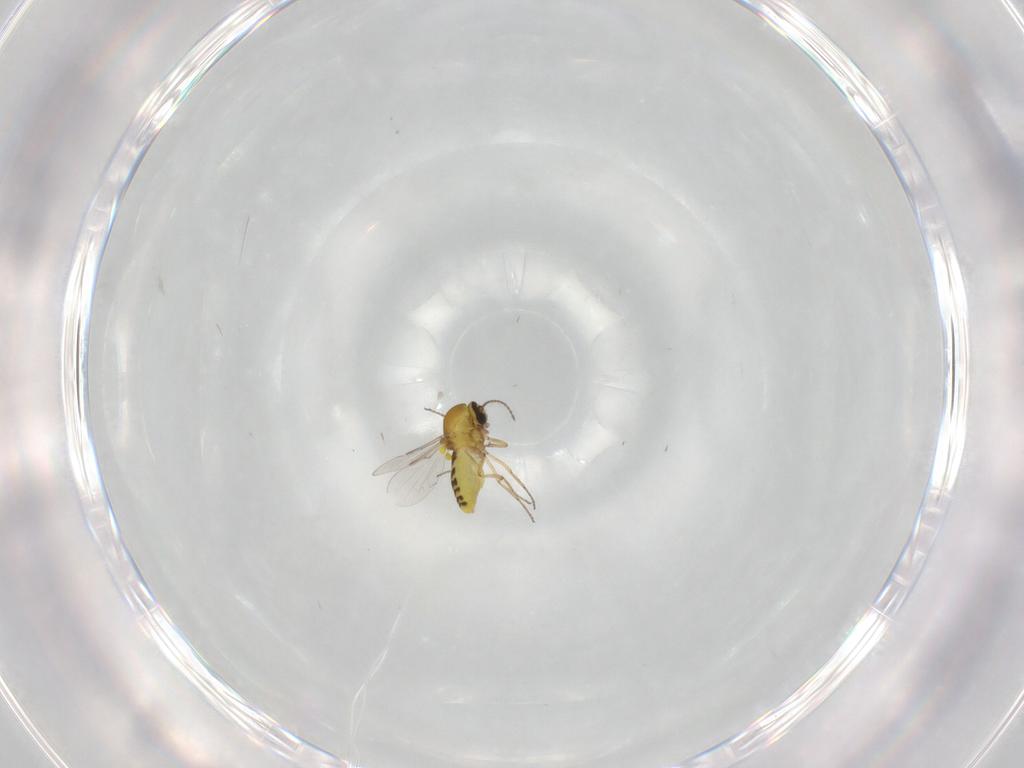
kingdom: Animalia
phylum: Arthropoda
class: Insecta
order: Diptera
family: Ceratopogonidae
